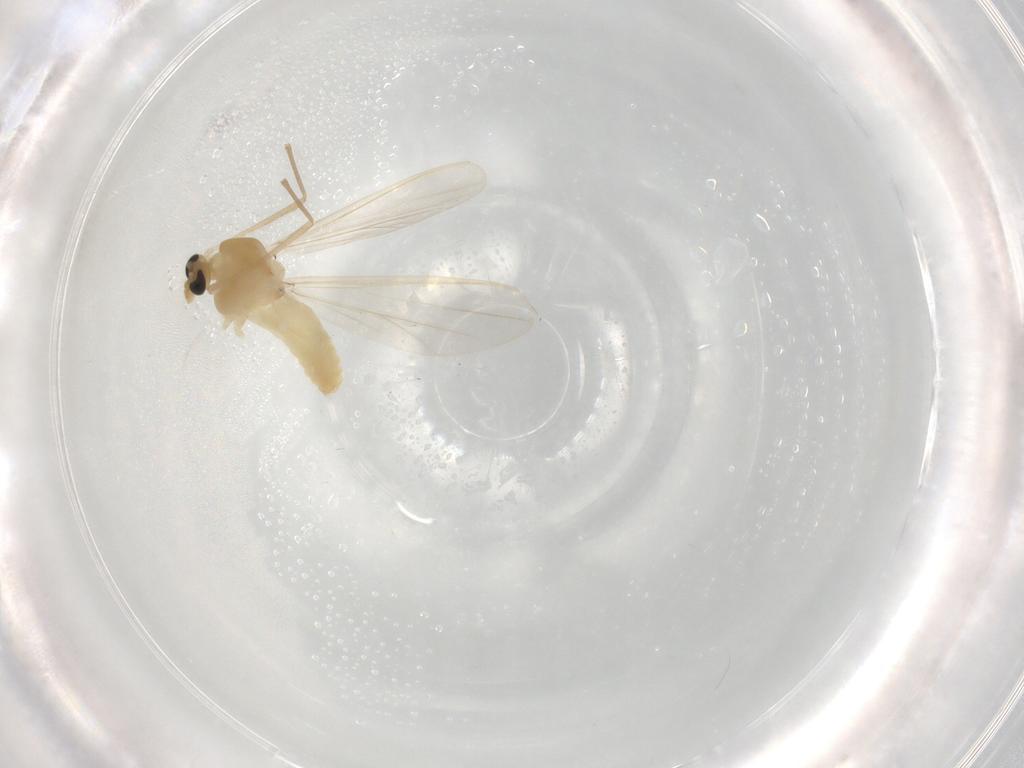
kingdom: Animalia
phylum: Arthropoda
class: Insecta
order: Diptera
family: Chironomidae
